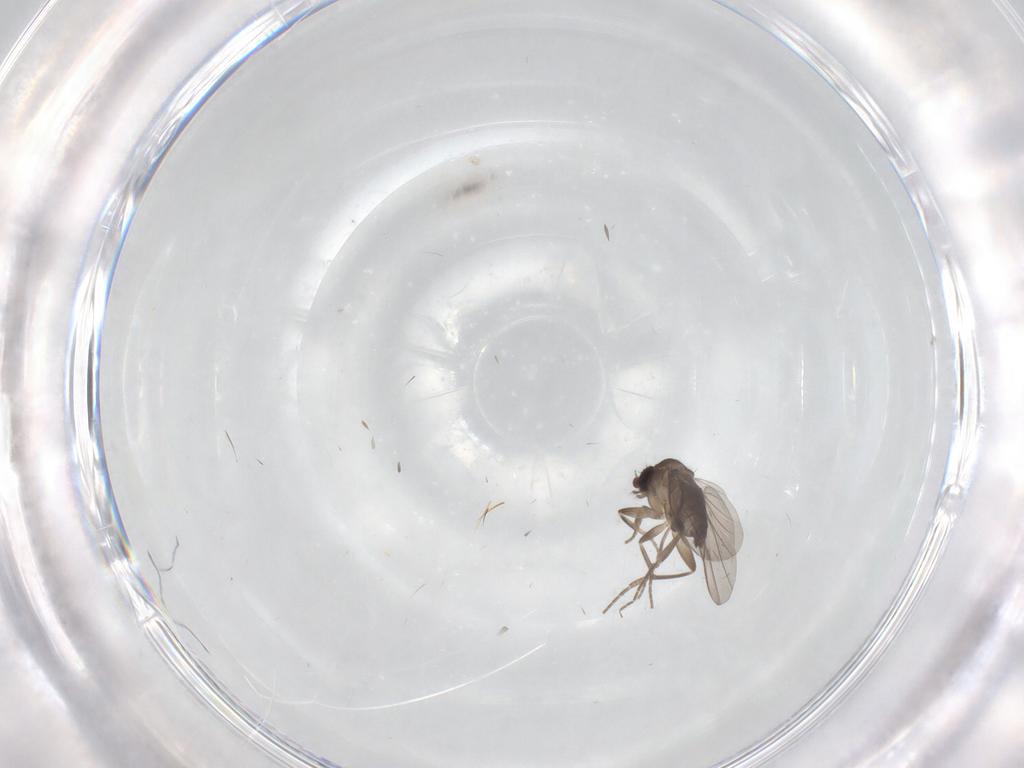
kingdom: Animalia
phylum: Arthropoda
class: Insecta
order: Diptera
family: Phoridae
